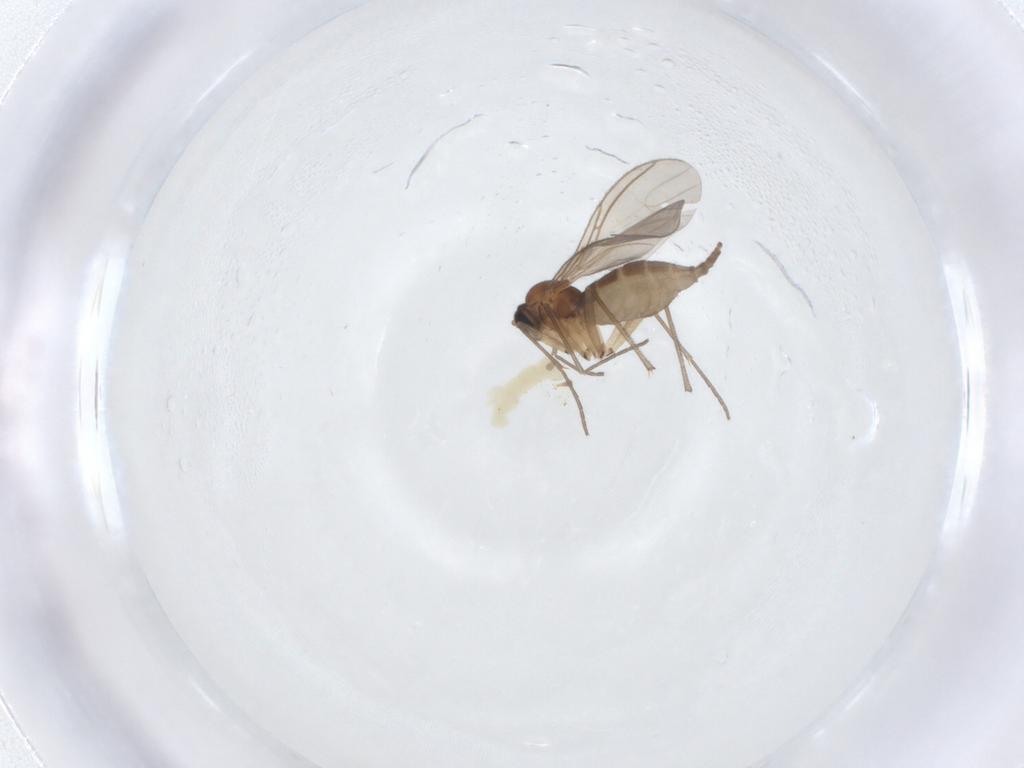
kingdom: Animalia
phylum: Arthropoda
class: Insecta
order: Diptera
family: Chironomidae
